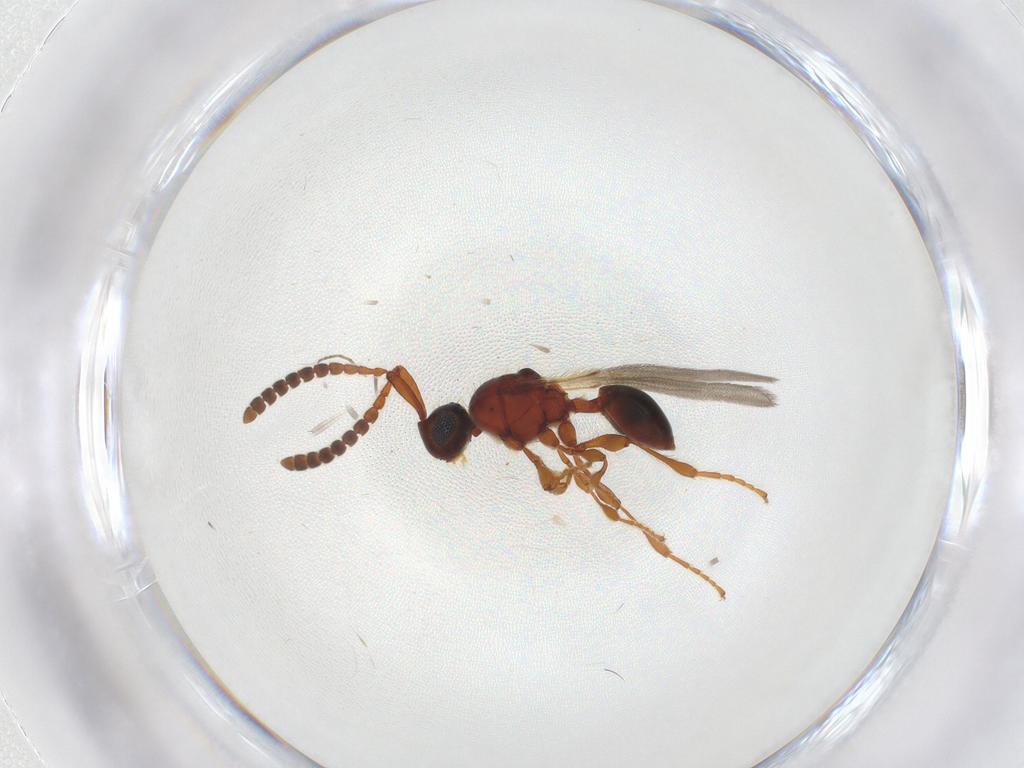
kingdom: Animalia
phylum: Arthropoda
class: Insecta
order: Hymenoptera
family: Diapriidae
